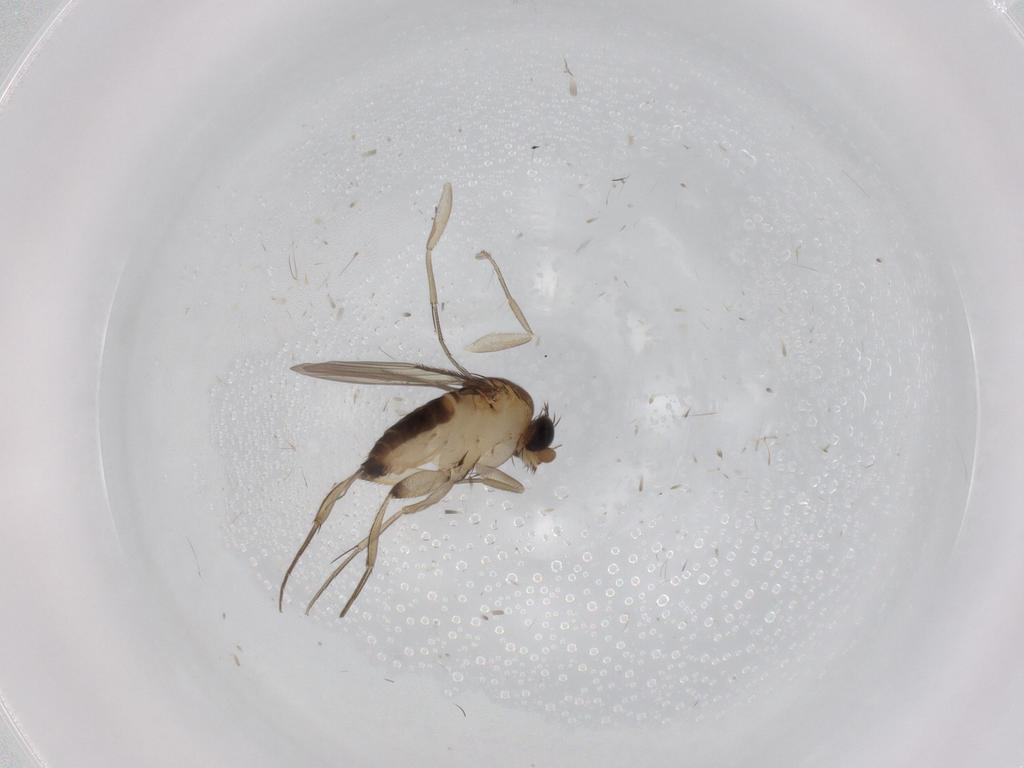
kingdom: Animalia
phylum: Arthropoda
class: Insecta
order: Diptera
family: Phoridae
